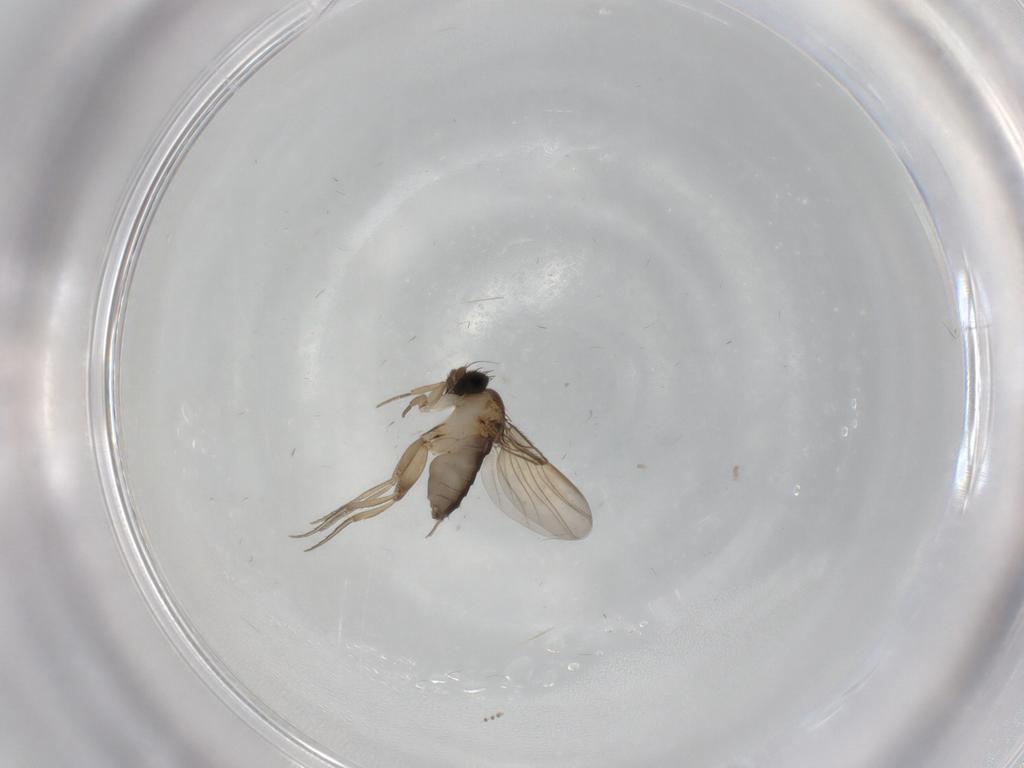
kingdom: Animalia
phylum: Arthropoda
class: Insecta
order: Diptera
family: Phoridae
